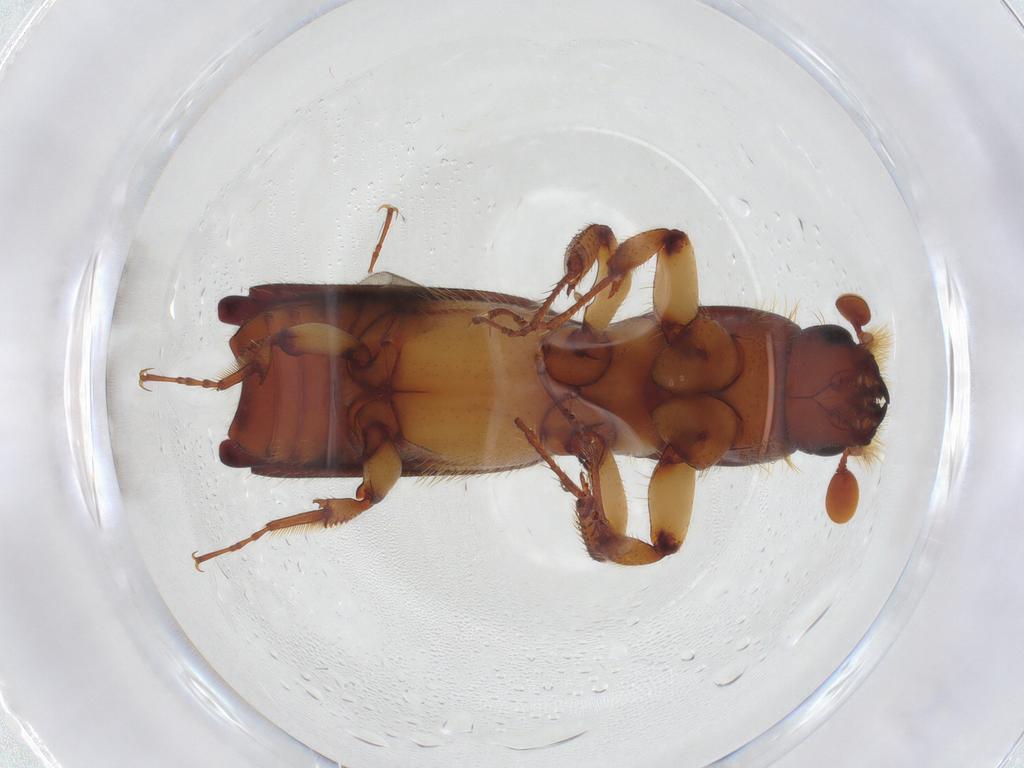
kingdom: Animalia
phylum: Arthropoda
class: Insecta
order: Coleoptera
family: Curculionidae
